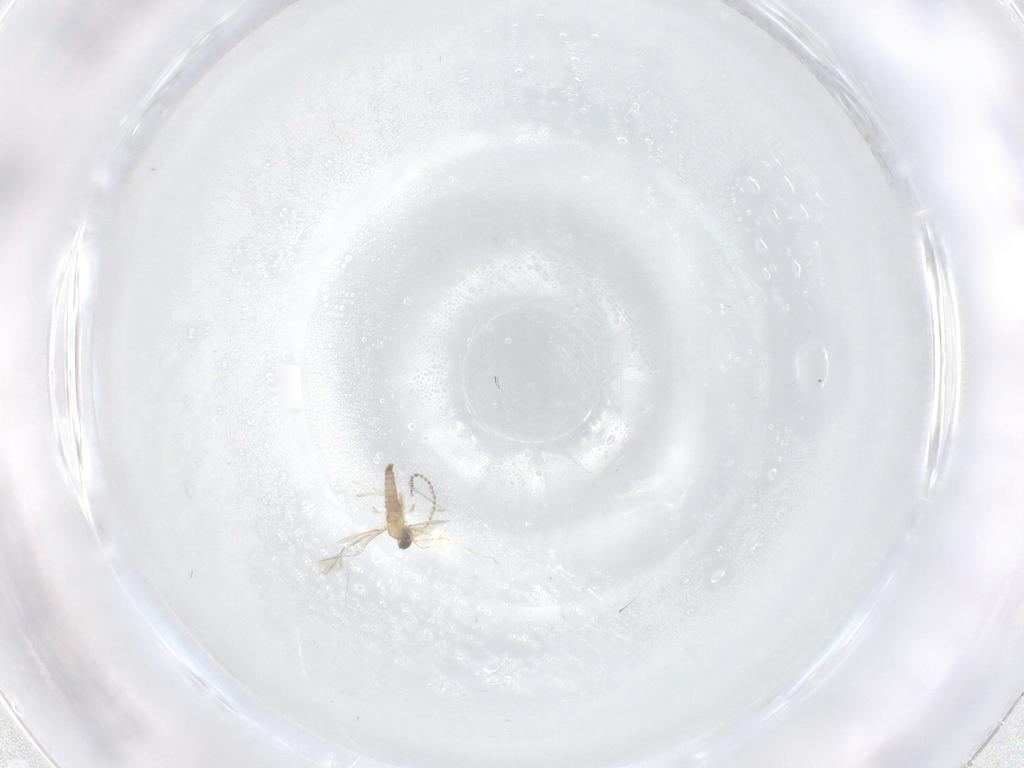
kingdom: Animalia
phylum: Arthropoda
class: Insecta
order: Diptera
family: Cecidomyiidae
